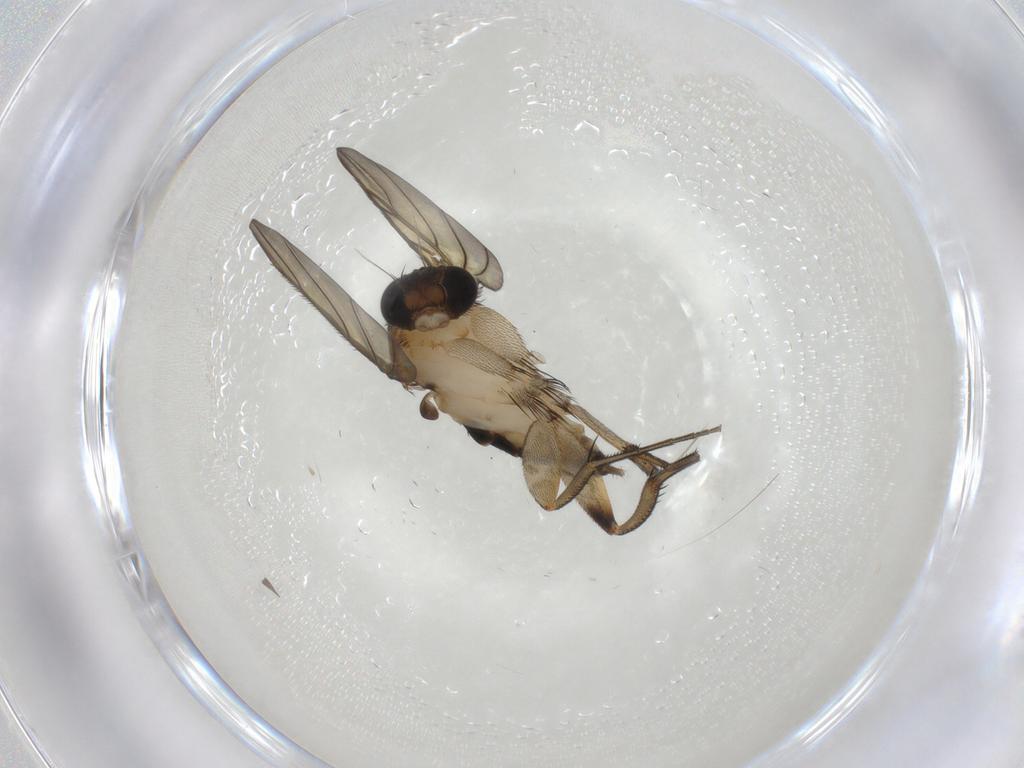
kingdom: Animalia
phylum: Arthropoda
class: Insecta
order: Diptera
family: Phoridae
